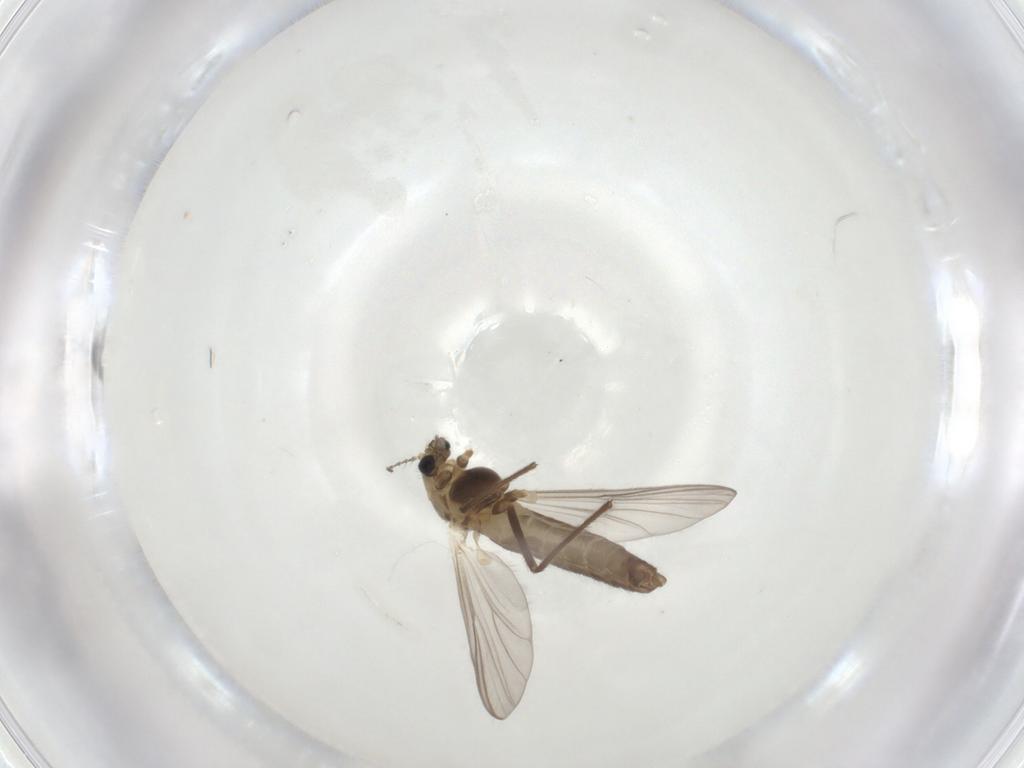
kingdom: Animalia
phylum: Arthropoda
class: Insecta
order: Diptera
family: Chironomidae
